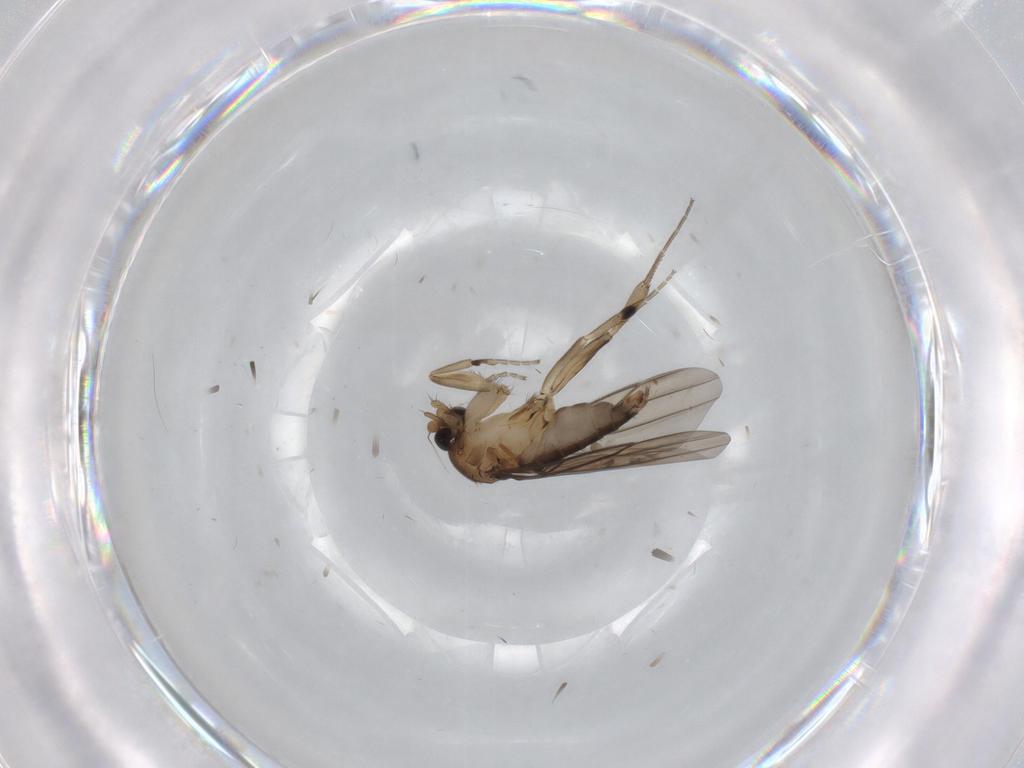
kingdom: Animalia
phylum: Arthropoda
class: Insecta
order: Diptera
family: Phoridae
